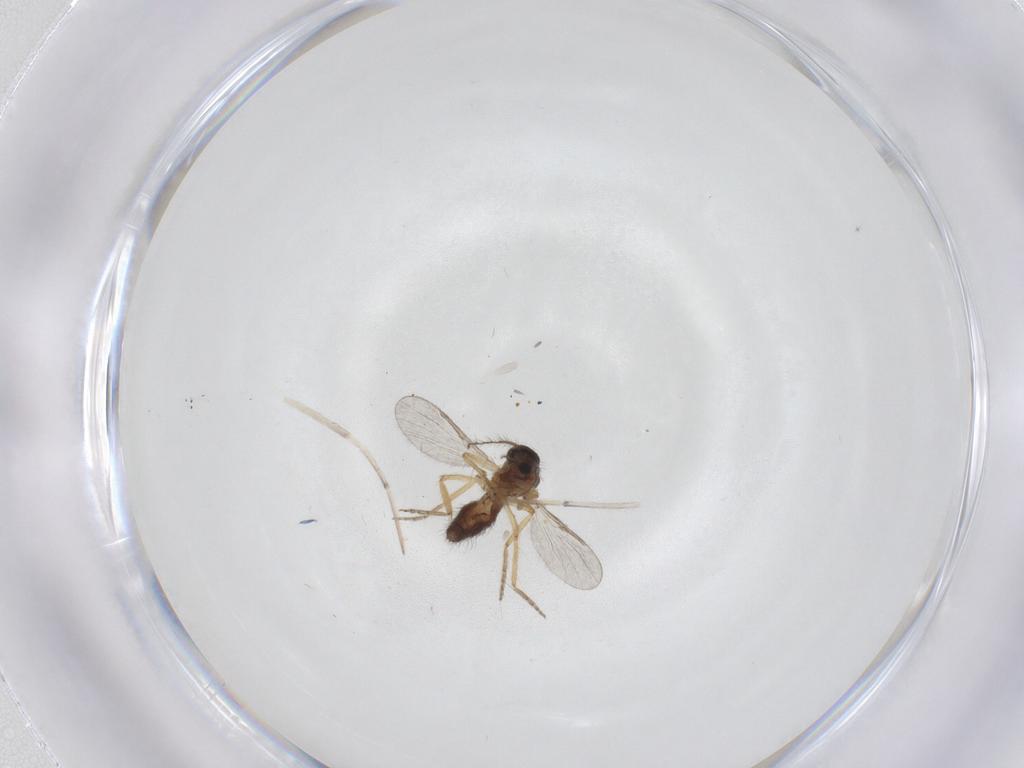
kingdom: Animalia
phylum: Arthropoda
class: Insecta
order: Diptera
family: Ceratopogonidae
